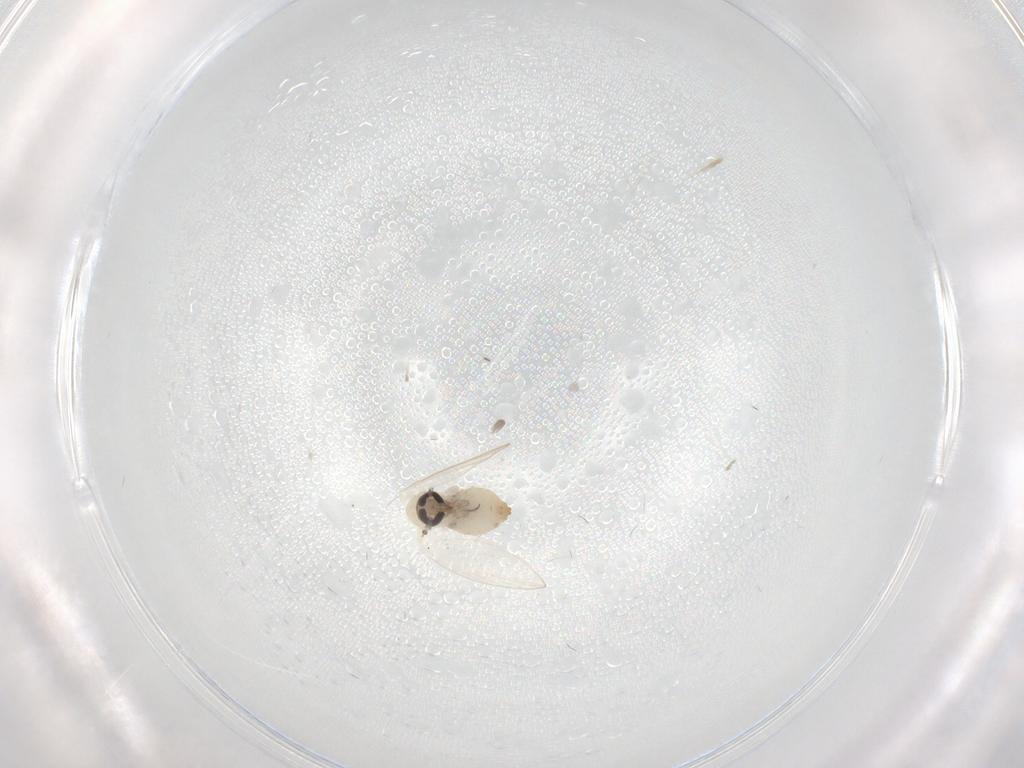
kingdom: Animalia
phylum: Arthropoda
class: Insecta
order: Diptera
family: Psychodidae
